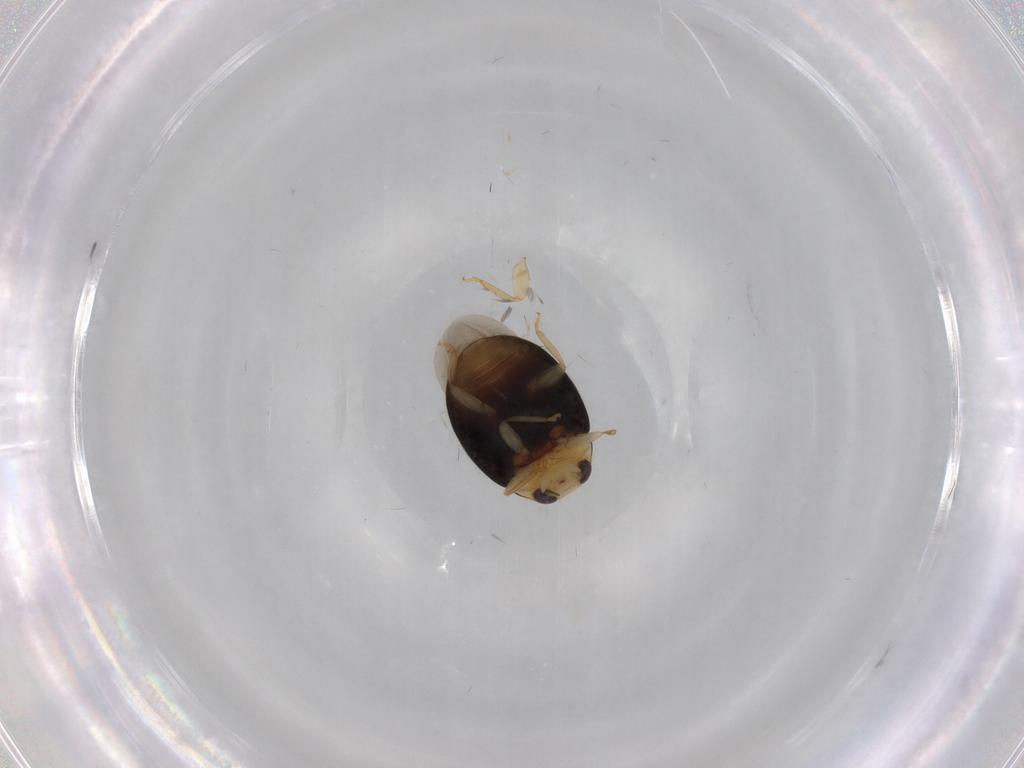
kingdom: Animalia
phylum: Arthropoda
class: Insecta
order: Coleoptera
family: Coccinellidae
